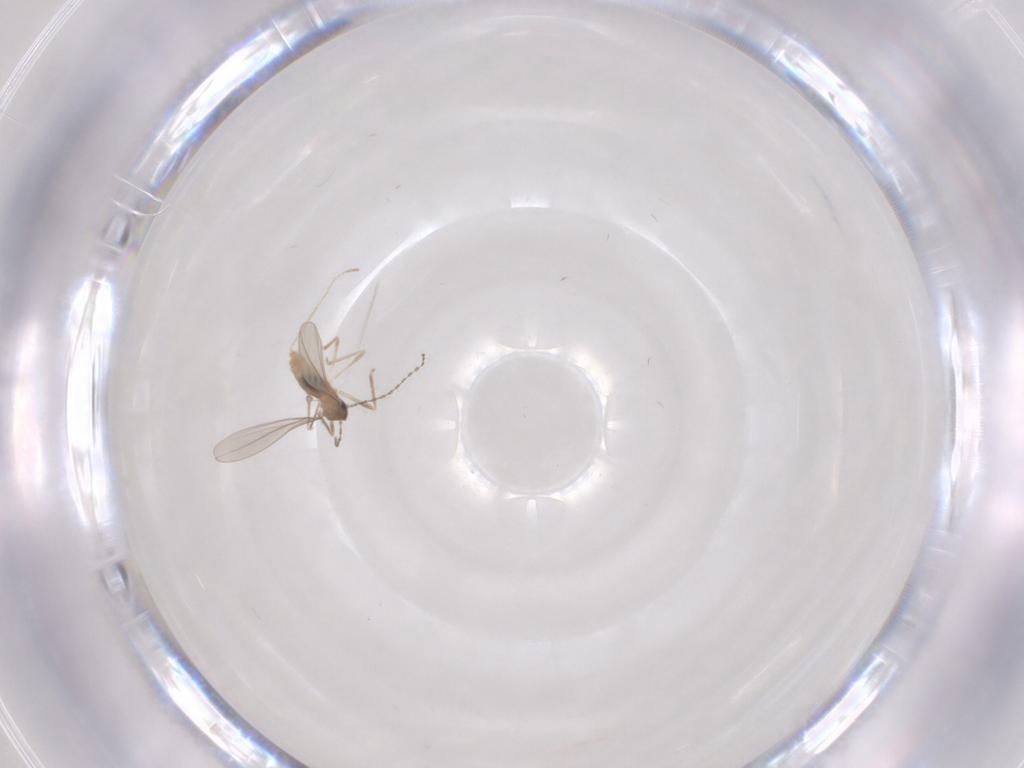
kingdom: Animalia
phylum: Arthropoda
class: Insecta
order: Diptera
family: Cecidomyiidae
